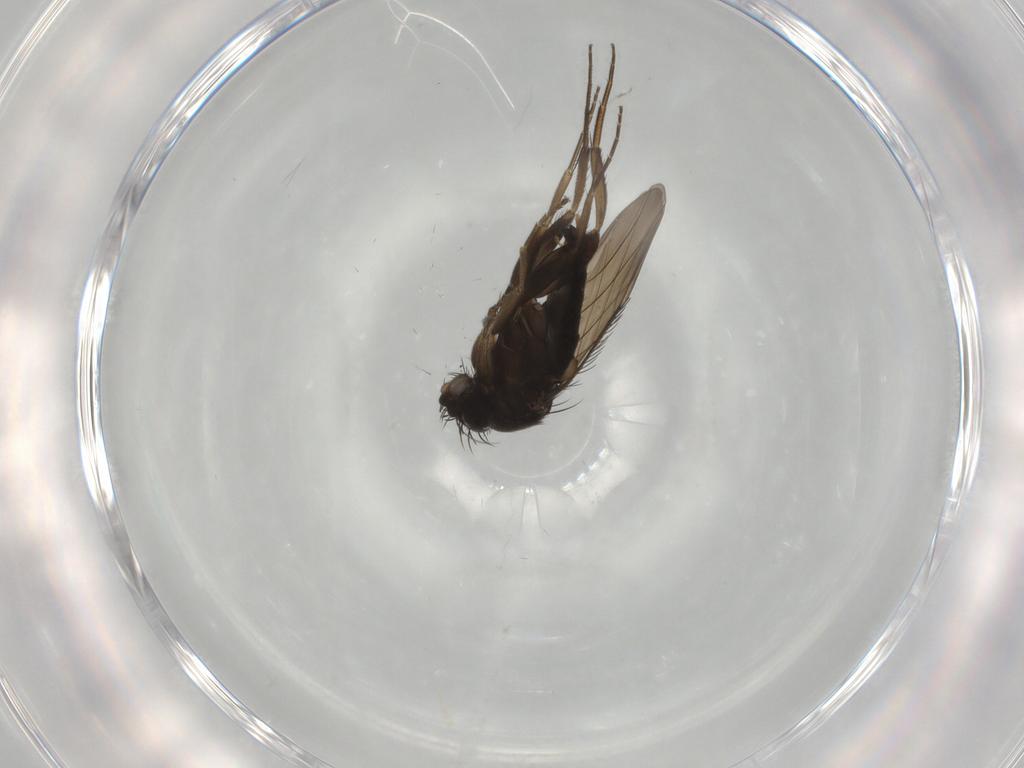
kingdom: Animalia
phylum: Arthropoda
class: Insecta
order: Diptera
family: Phoridae
